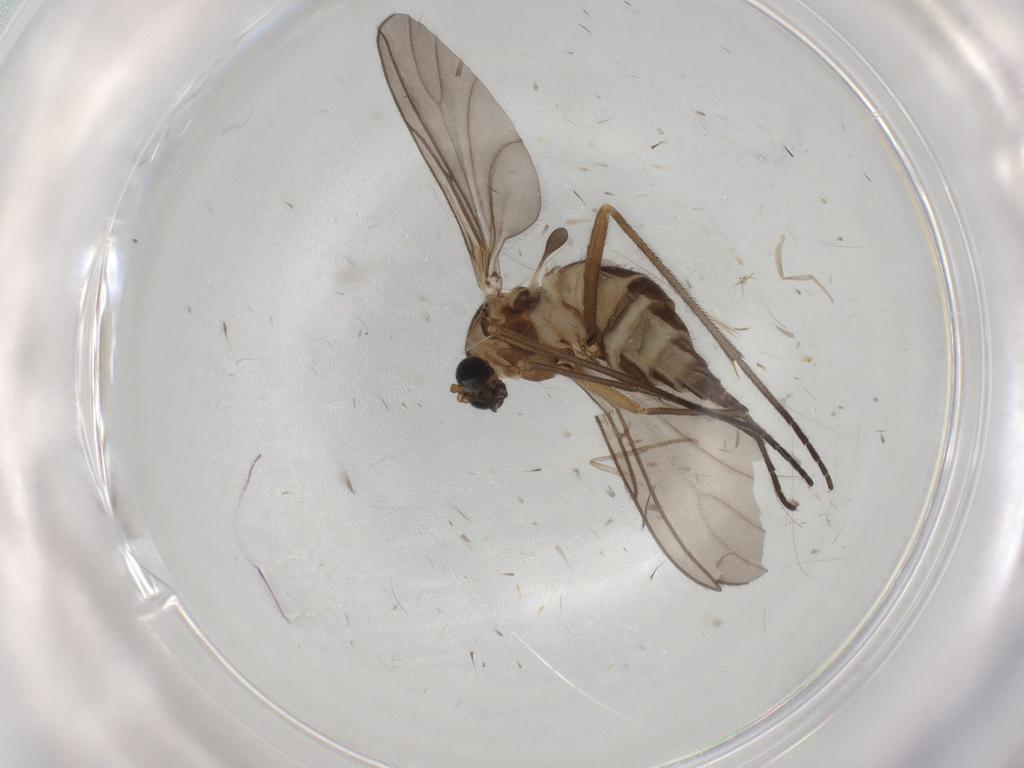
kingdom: Animalia
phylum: Arthropoda
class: Insecta
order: Diptera
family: Sciaridae
